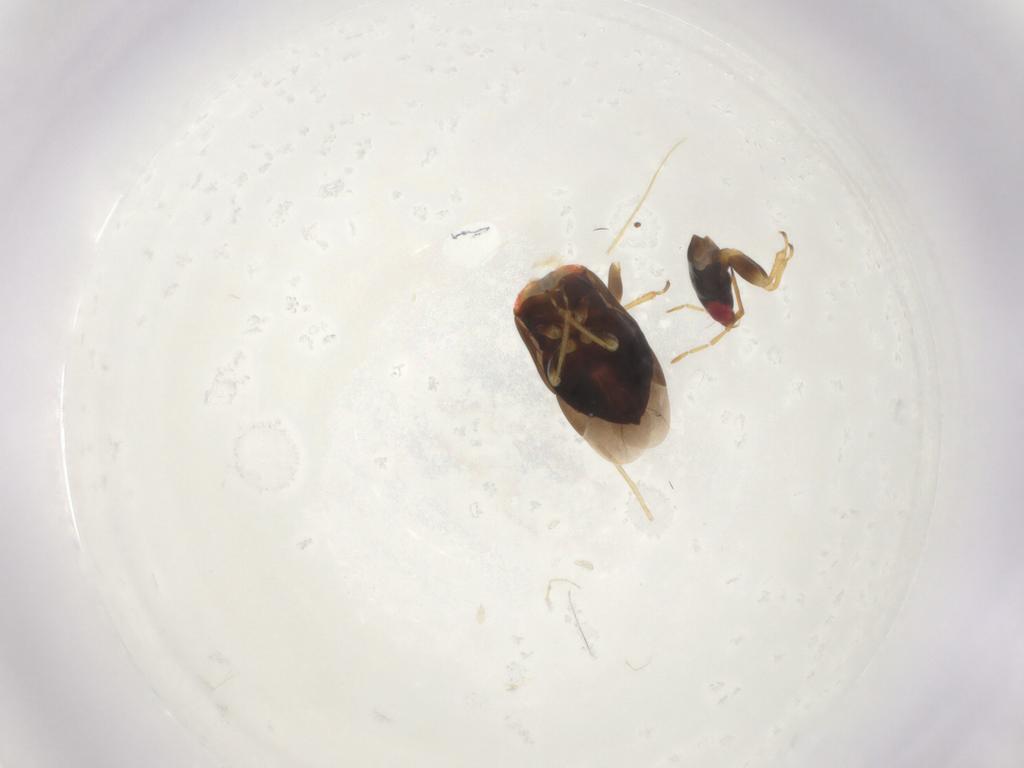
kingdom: Animalia
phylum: Arthropoda
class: Insecta
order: Hemiptera
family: Anthocoridae
